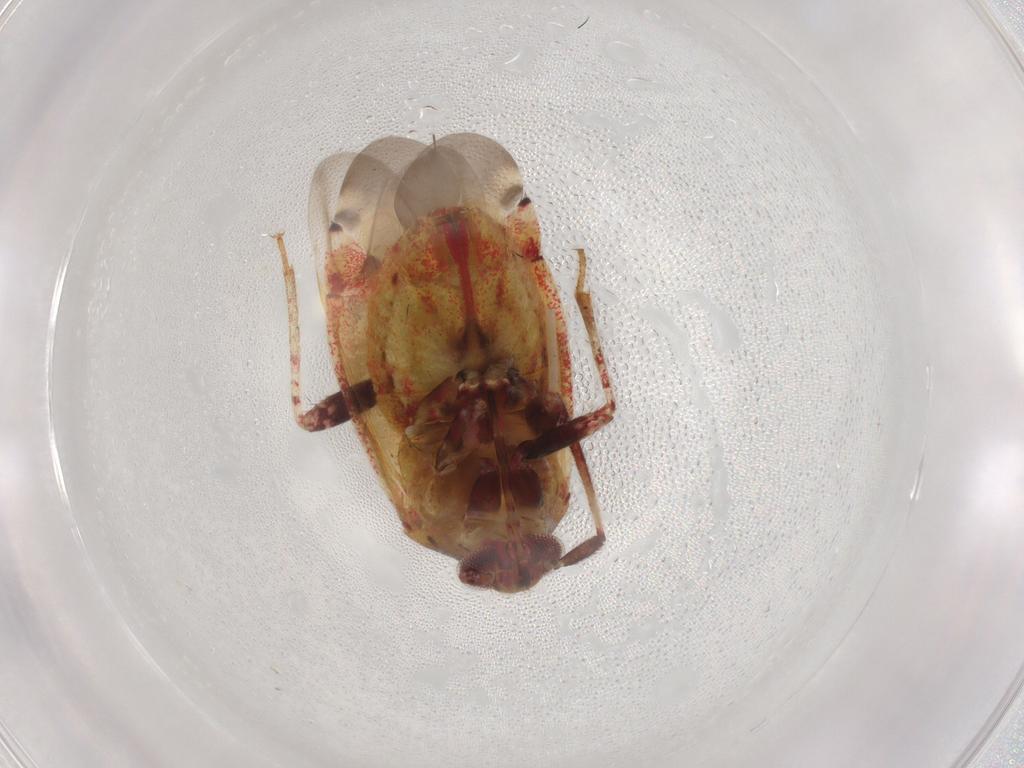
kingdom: Animalia
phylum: Arthropoda
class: Insecta
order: Hemiptera
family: Miridae
